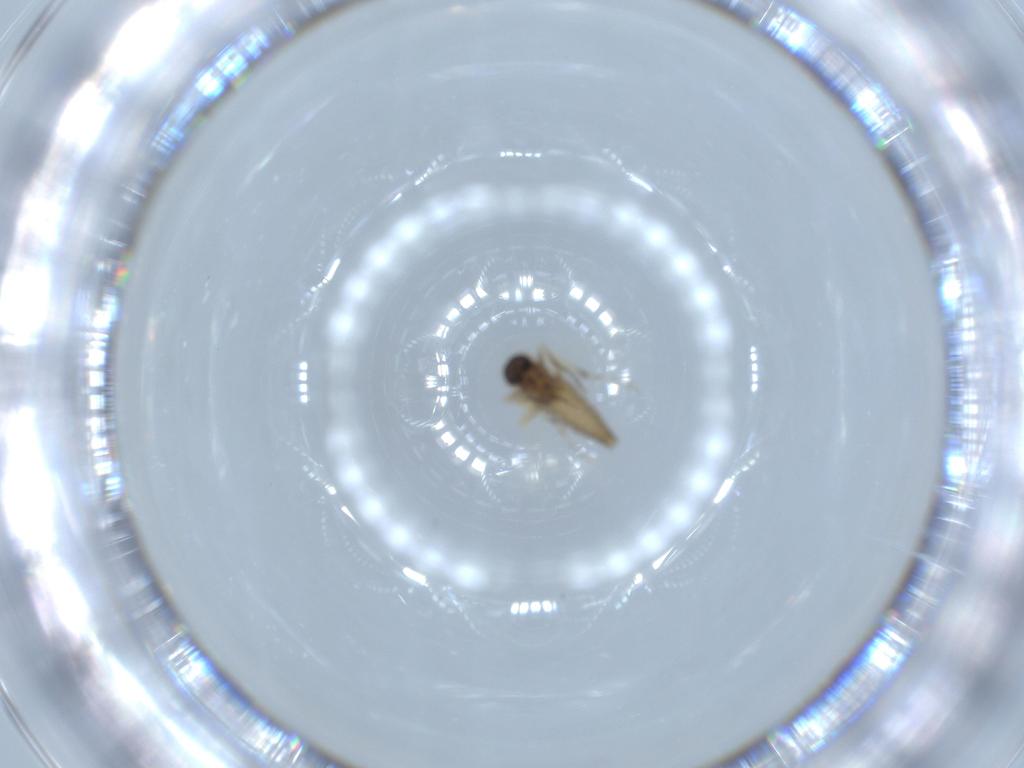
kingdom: Animalia
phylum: Arthropoda
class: Insecta
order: Diptera
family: Ceratopogonidae
